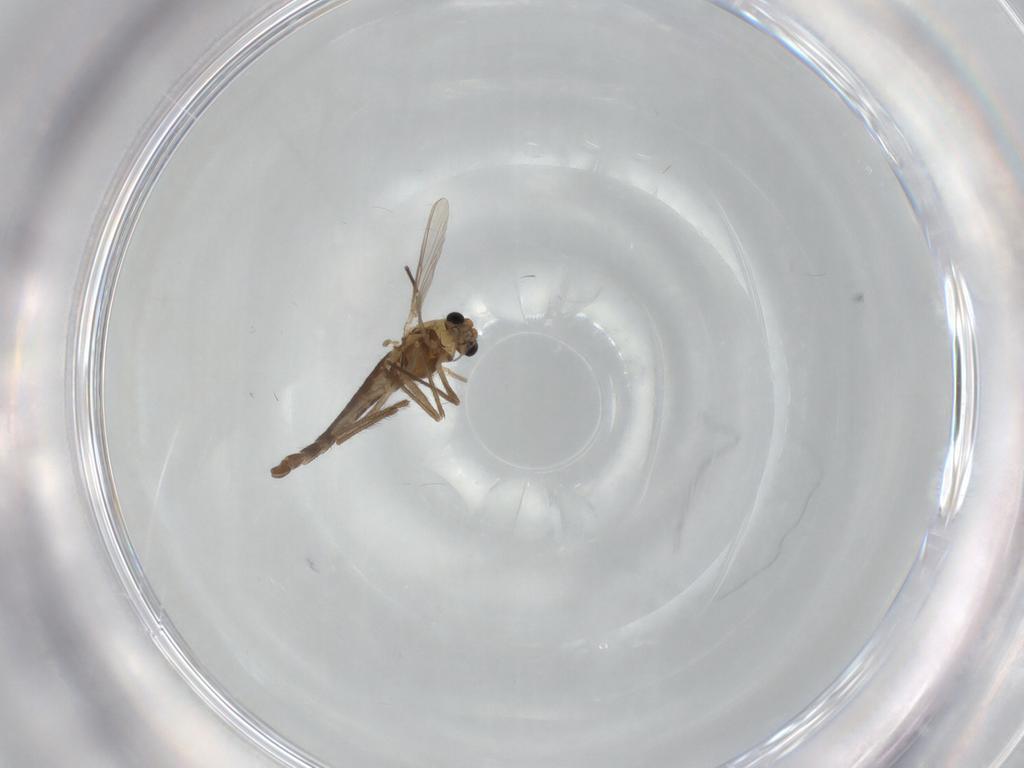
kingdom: Animalia
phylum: Arthropoda
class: Insecta
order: Diptera
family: Chironomidae
